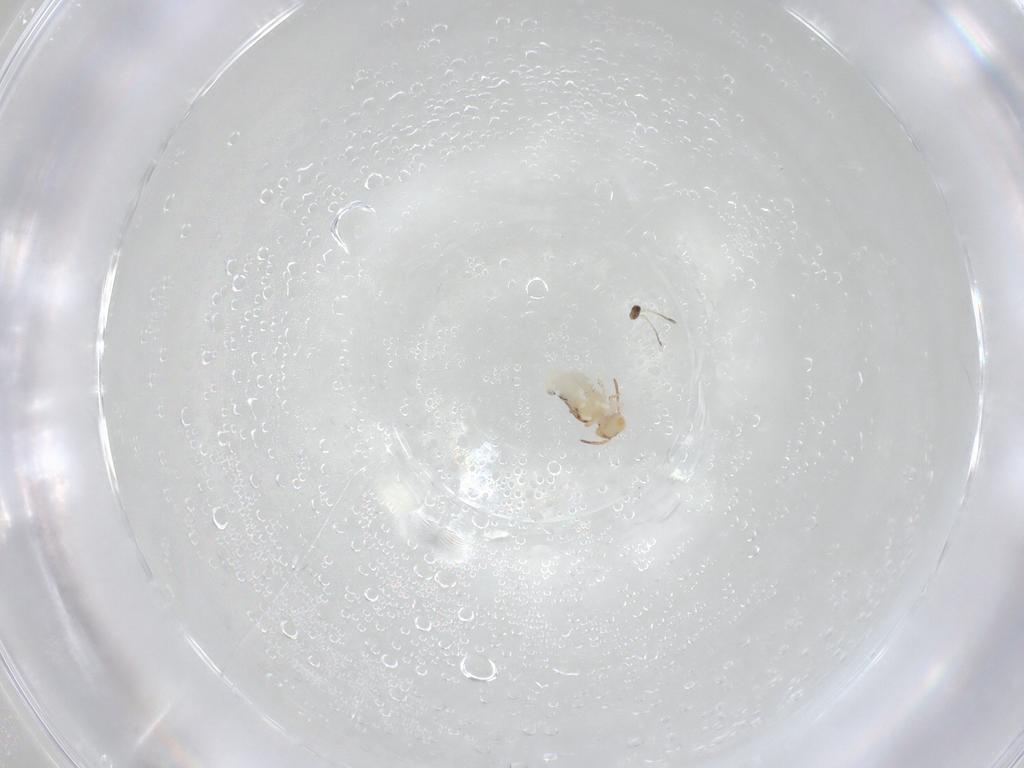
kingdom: Animalia
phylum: Arthropoda
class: Collembola
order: Symphypleona
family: Bourletiellidae
